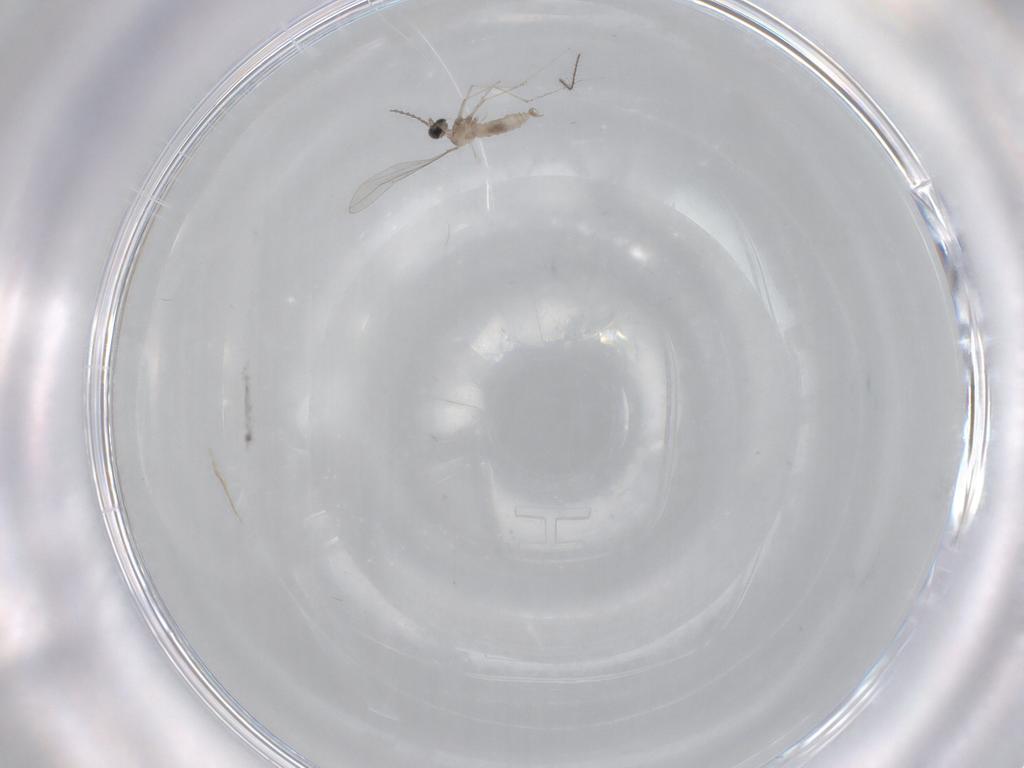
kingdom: Animalia
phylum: Arthropoda
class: Insecta
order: Diptera
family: Cecidomyiidae
